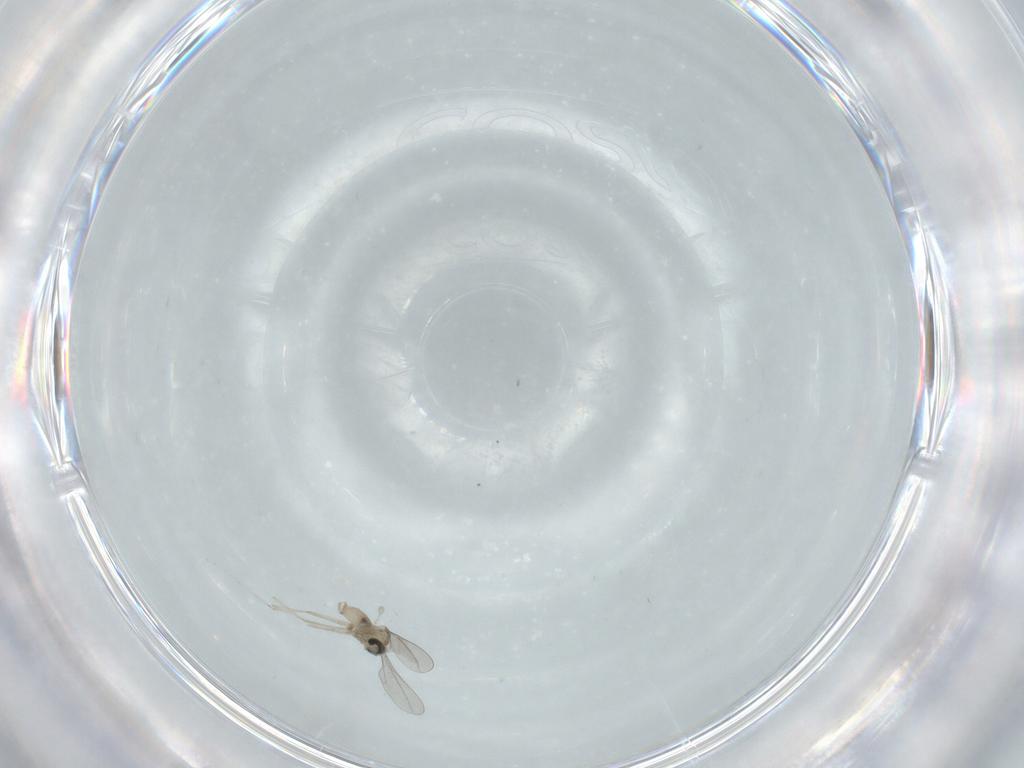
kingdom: Animalia
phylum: Arthropoda
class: Insecta
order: Diptera
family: Cecidomyiidae
